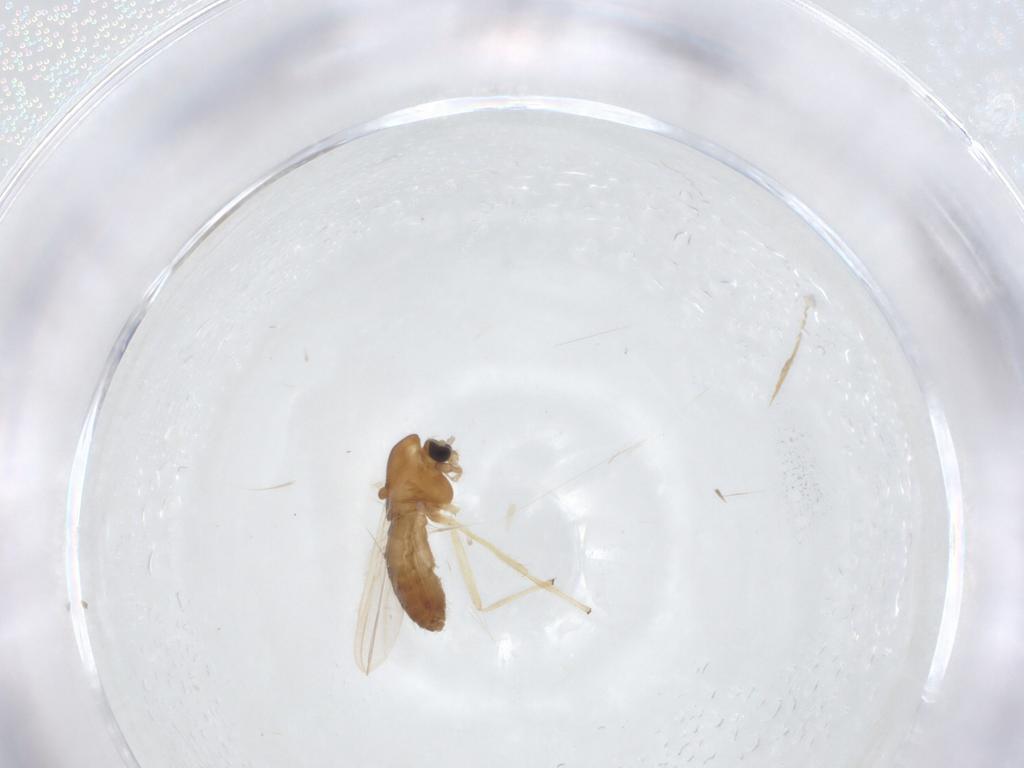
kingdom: Animalia
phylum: Arthropoda
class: Insecta
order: Diptera
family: Chironomidae
